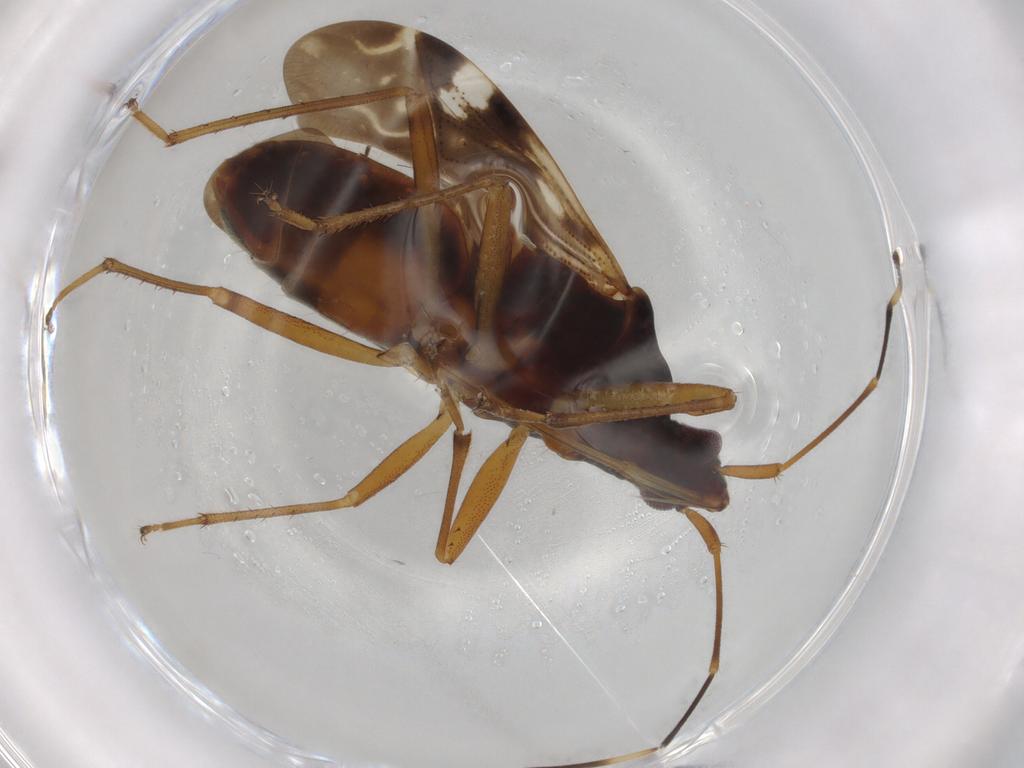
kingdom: Animalia
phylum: Arthropoda
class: Insecta
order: Hemiptera
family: Rhyparochromidae
